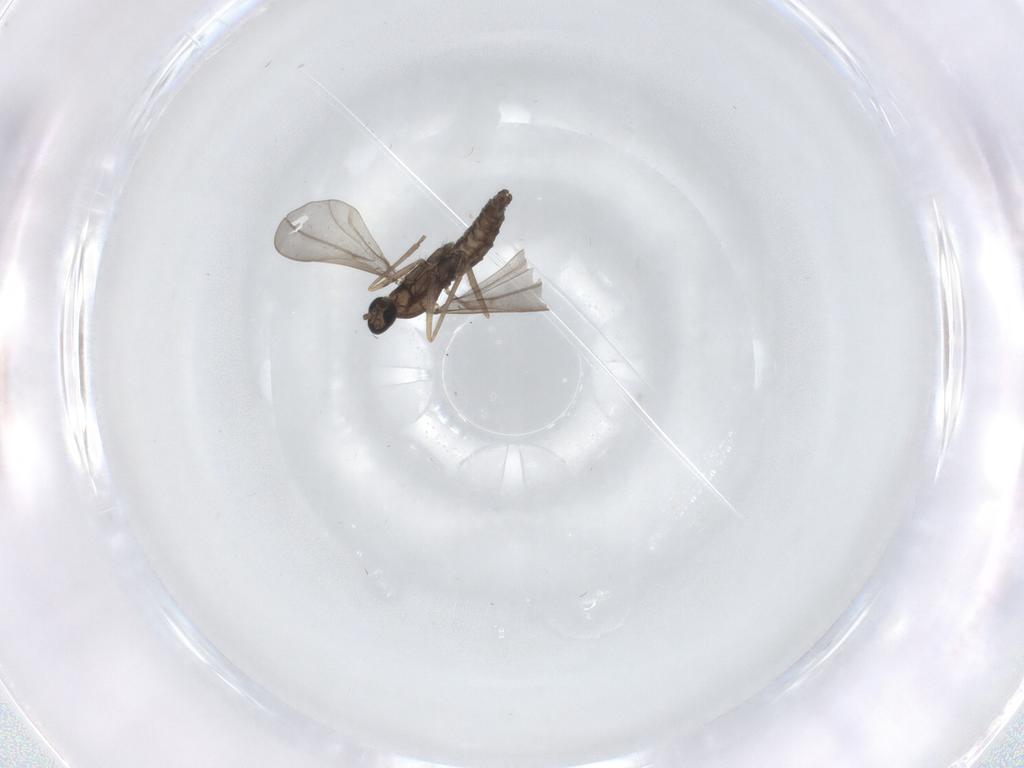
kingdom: Animalia
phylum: Arthropoda
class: Insecta
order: Diptera
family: Cecidomyiidae
